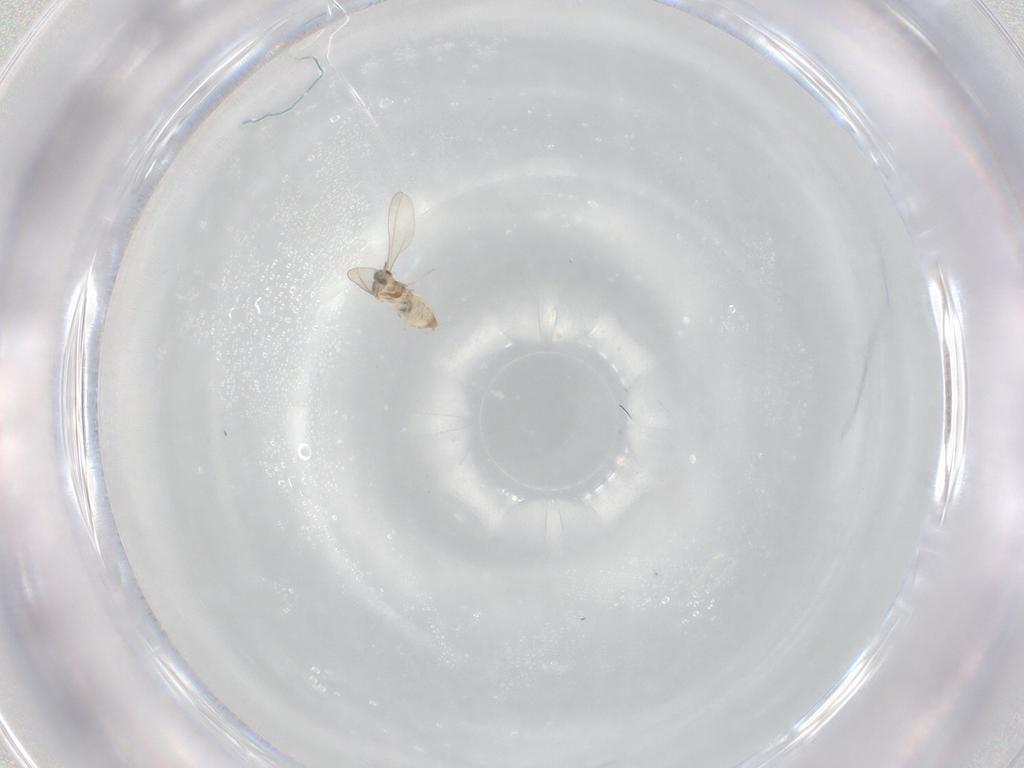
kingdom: Animalia
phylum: Arthropoda
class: Insecta
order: Diptera
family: Cecidomyiidae
